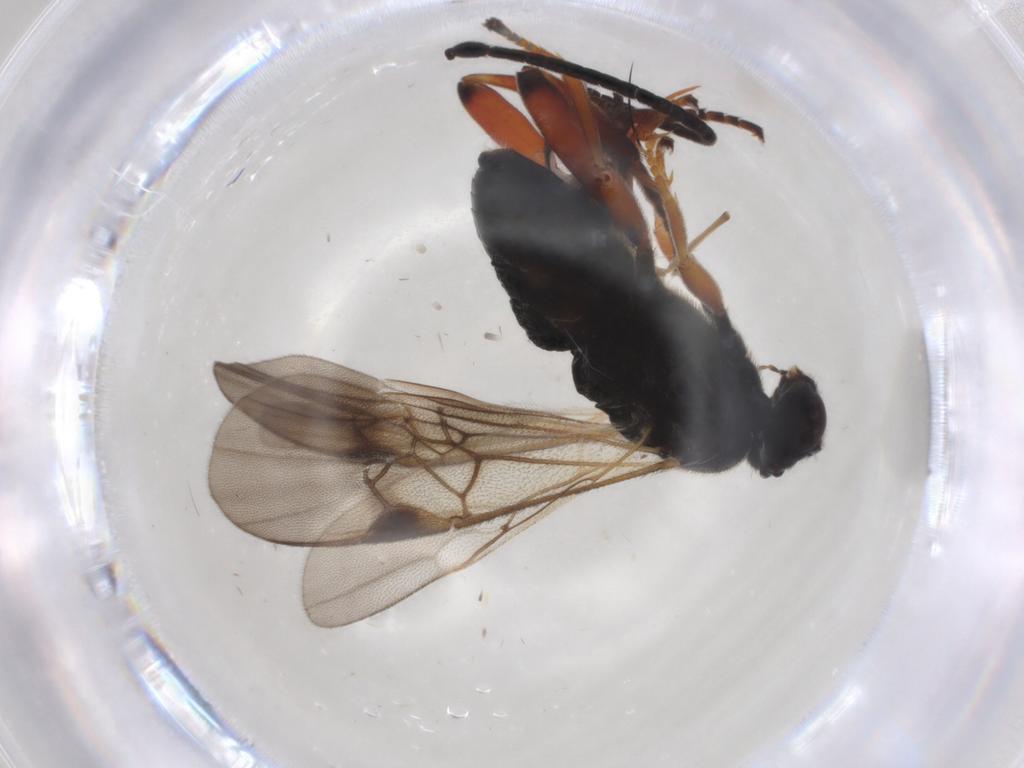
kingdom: Animalia
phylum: Arthropoda
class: Insecta
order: Hymenoptera
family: Braconidae
